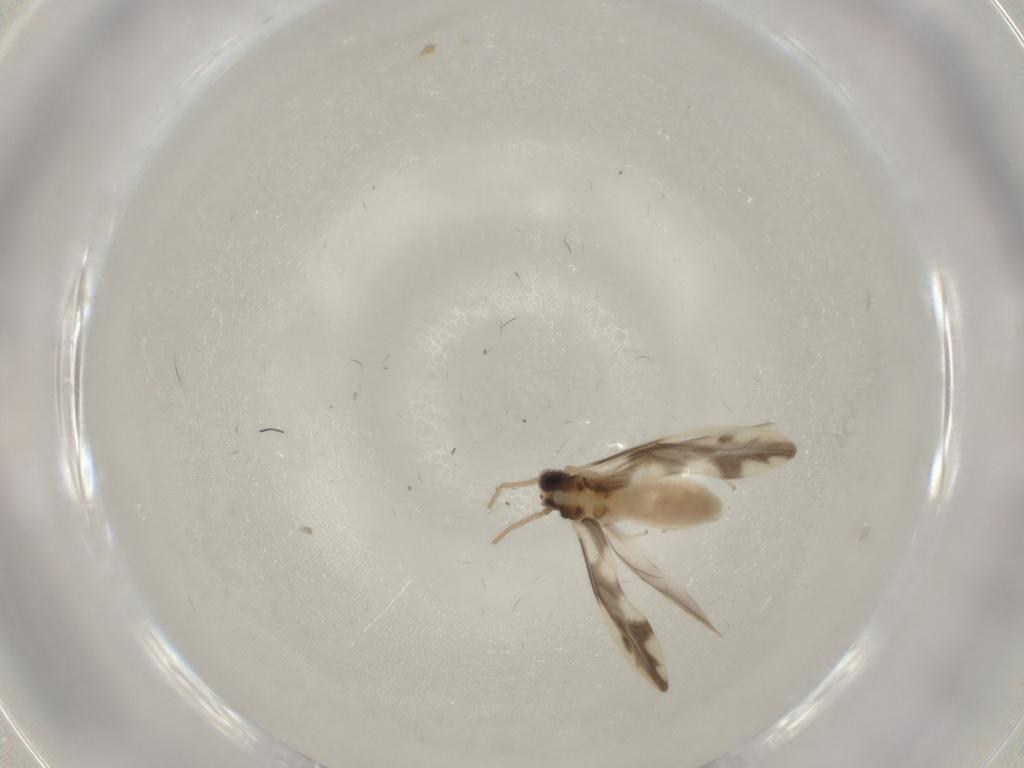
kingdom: Animalia
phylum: Arthropoda
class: Insecta
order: Psocodea
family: Caeciliusidae
